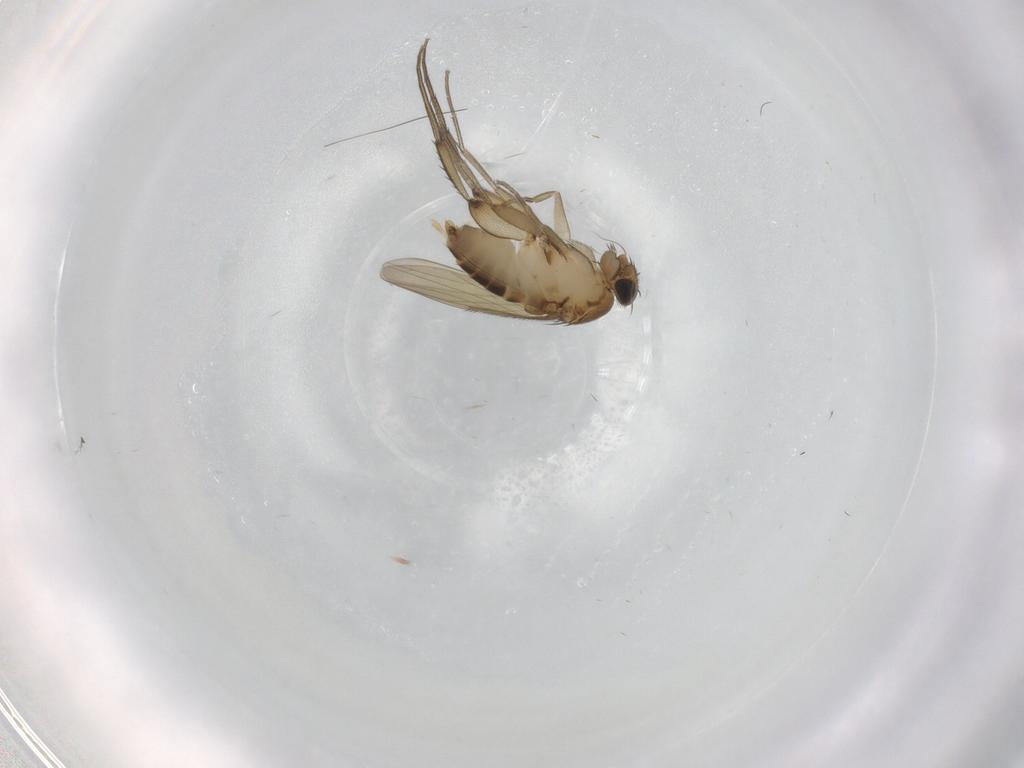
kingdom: Animalia
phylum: Arthropoda
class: Insecta
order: Diptera
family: Phoridae
